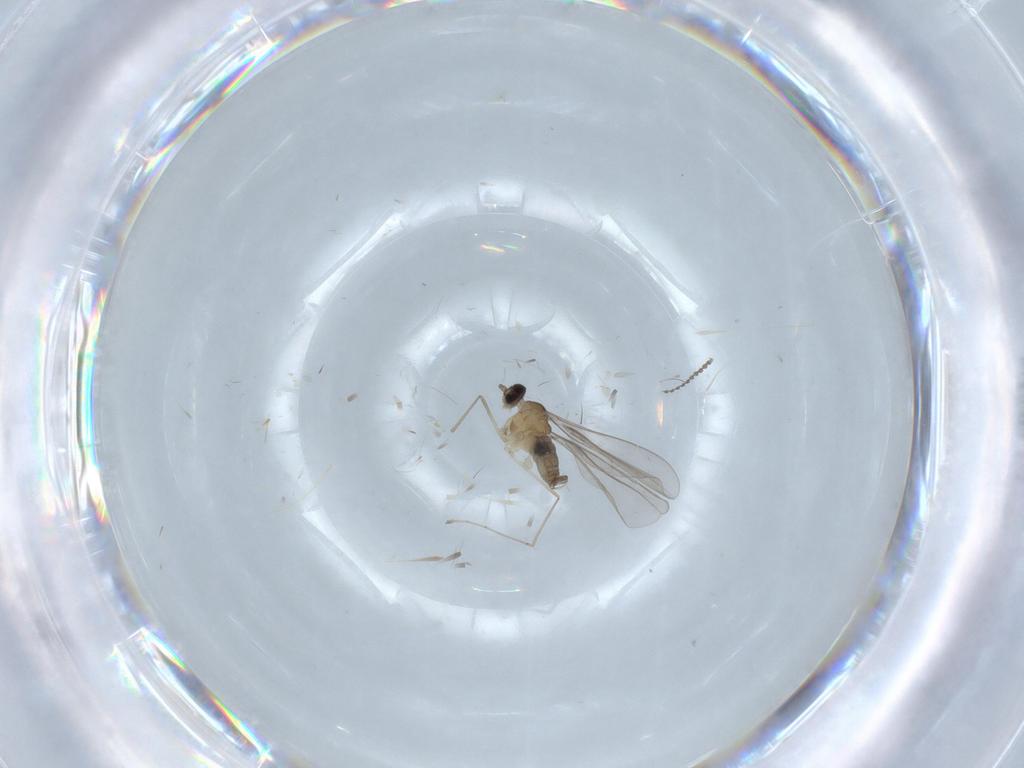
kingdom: Animalia
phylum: Arthropoda
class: Insecta
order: Diptera
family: Cecidomyiidae
